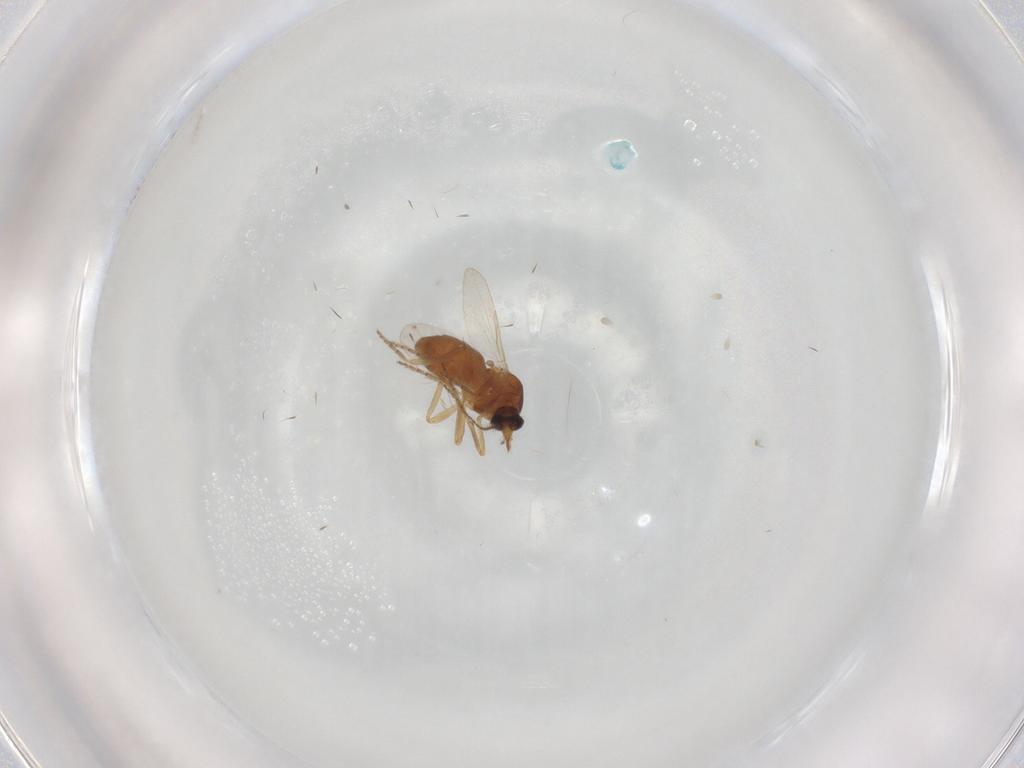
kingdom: Animalia
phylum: Arthropoda
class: Insecta
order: Diptera
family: Ceratopogonidae
